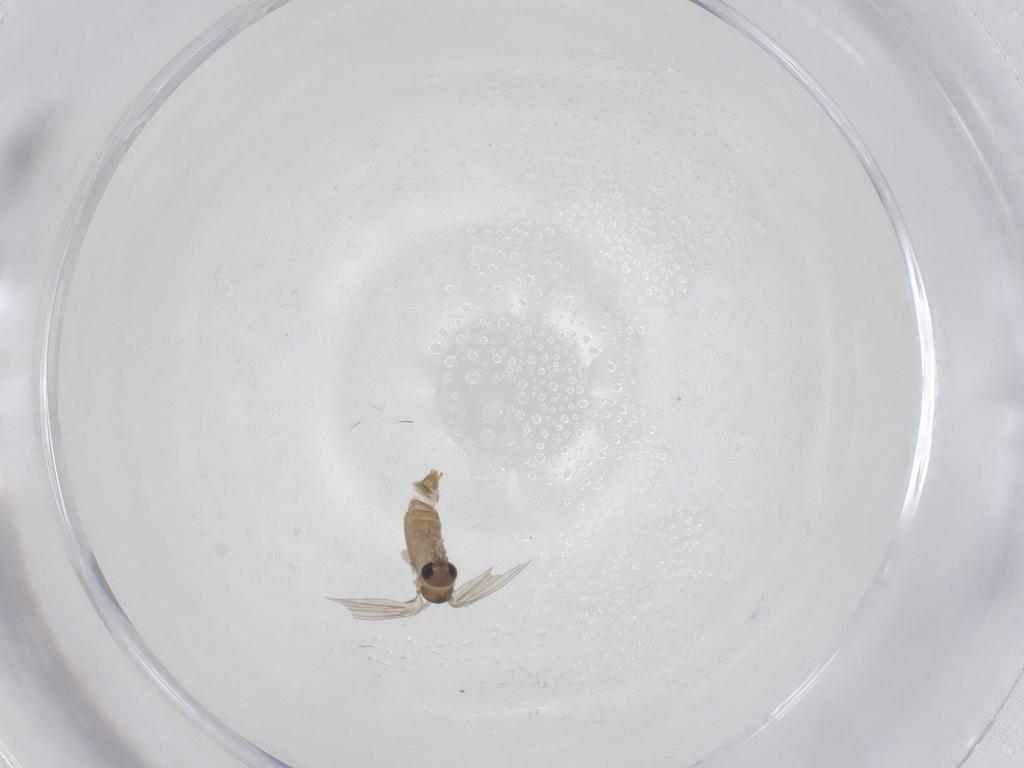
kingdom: Animalia
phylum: Arthropoda
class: Insecta
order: Diptera
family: Psychodidae
